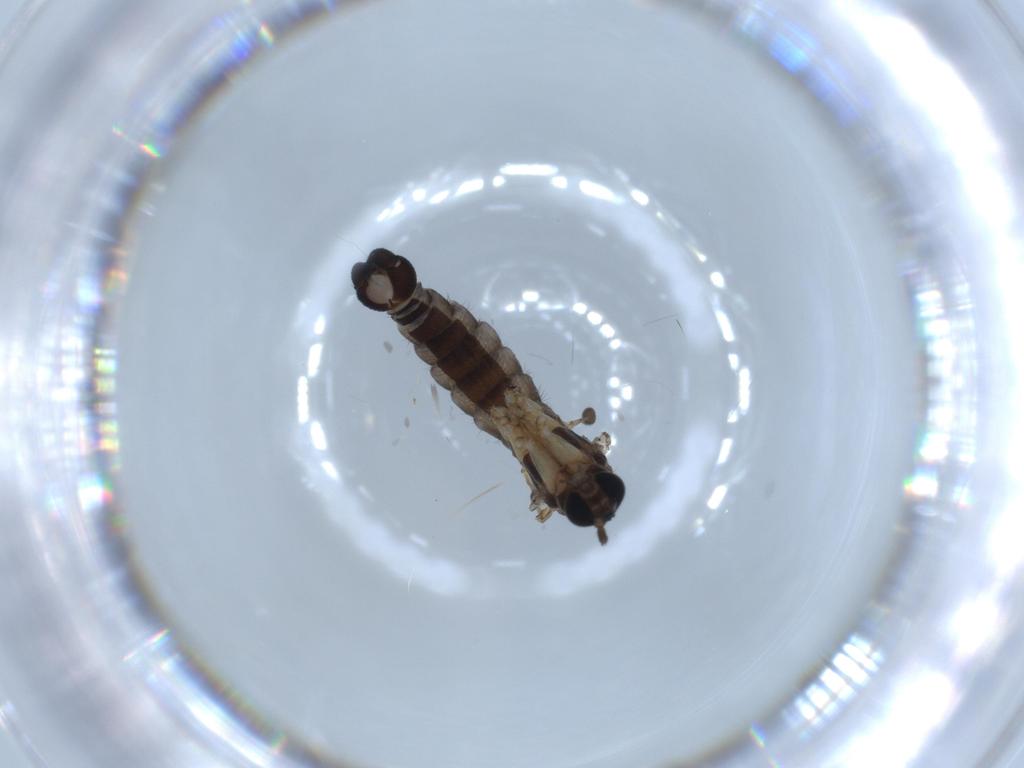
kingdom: Animalia
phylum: Arthropoda
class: Insecta
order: Diptera
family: Sciaridae
